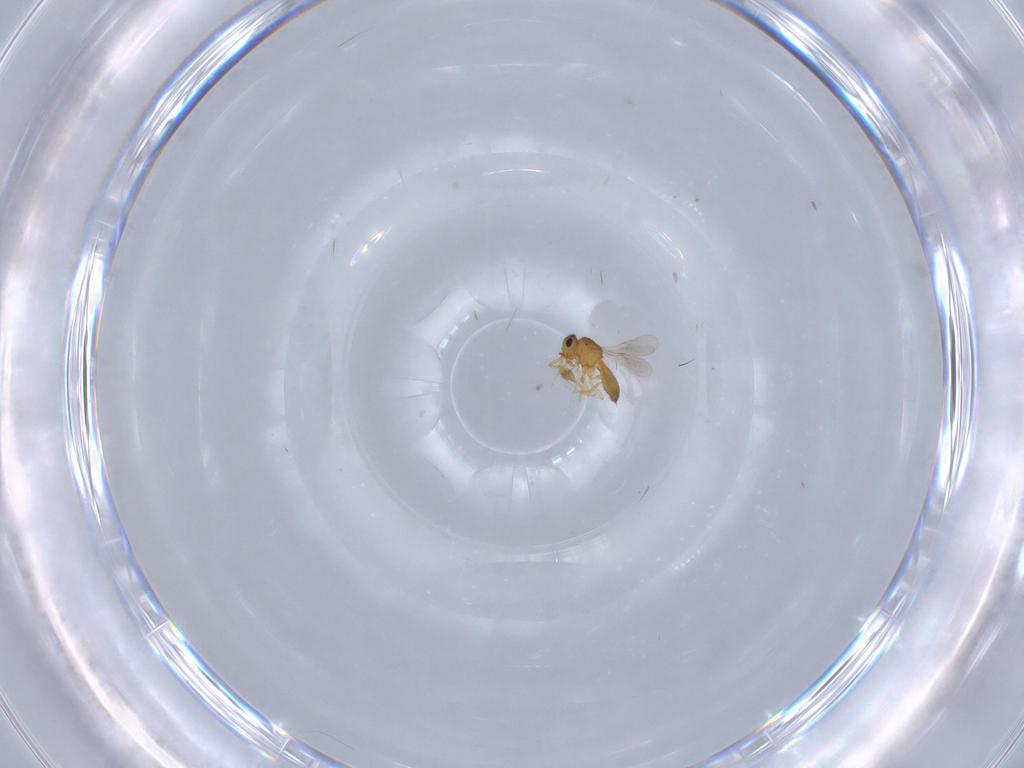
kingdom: Animalia
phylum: Arthropoda
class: Insecta
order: Hymenoptera
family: Scelionidae
